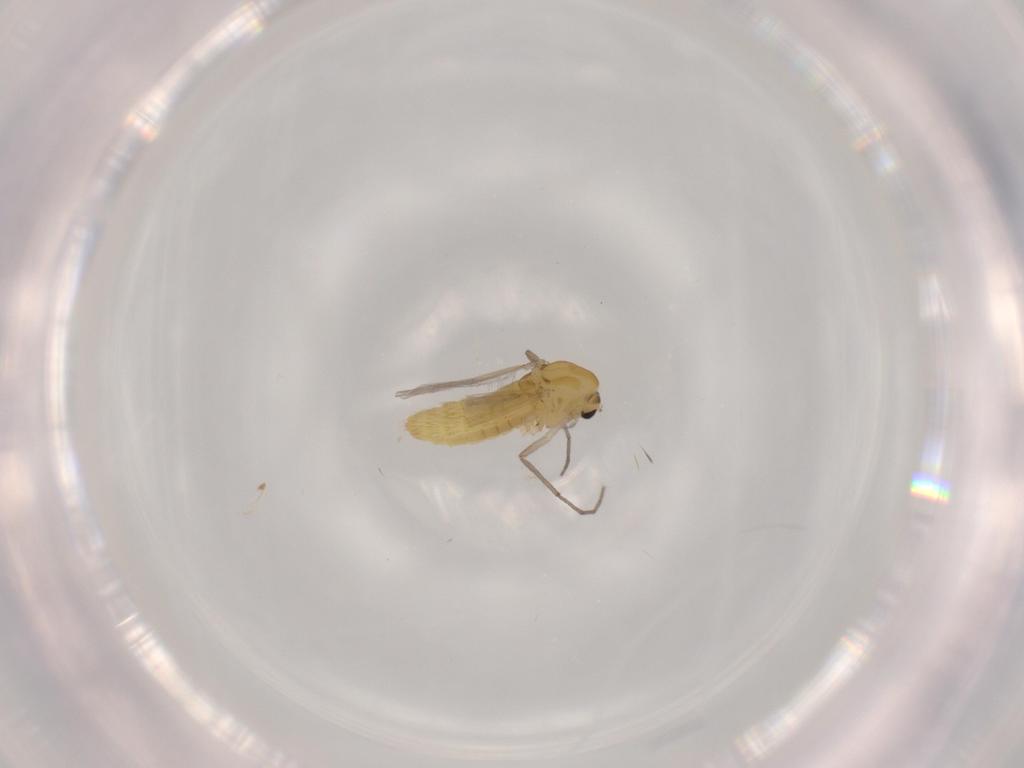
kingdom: Animalia
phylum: Arthropoda
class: Insecta
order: Diptera
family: Chironomidae
